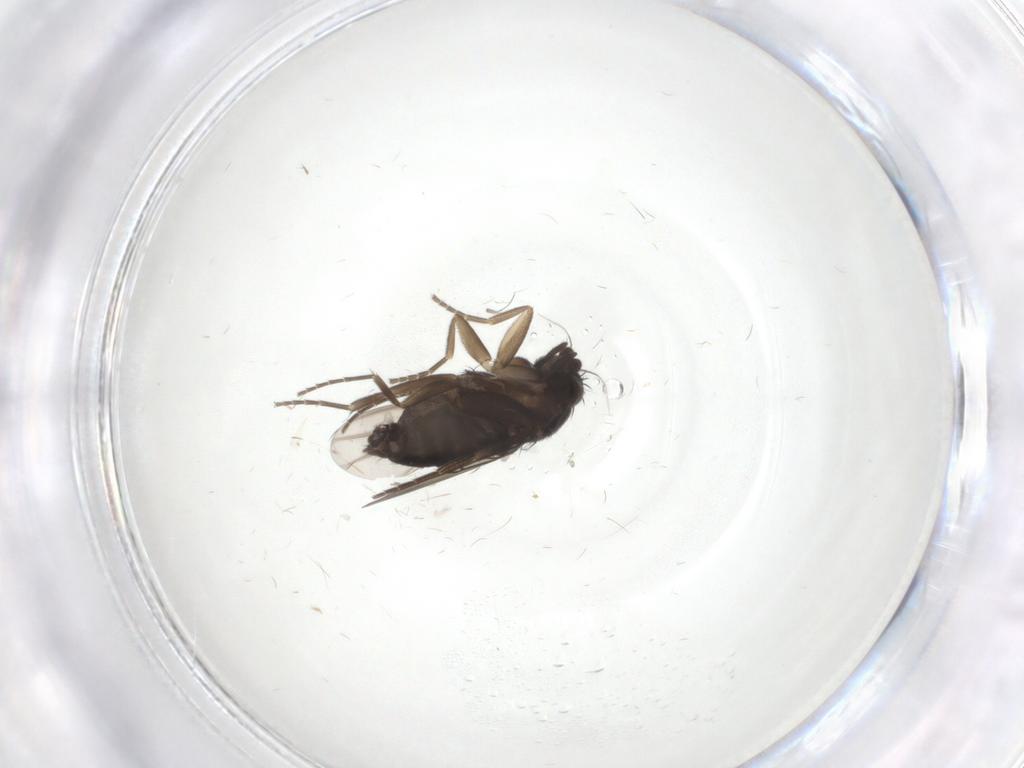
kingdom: Animalia
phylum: Arthropoda
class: Insecta
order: Diptera
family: Phoridae
